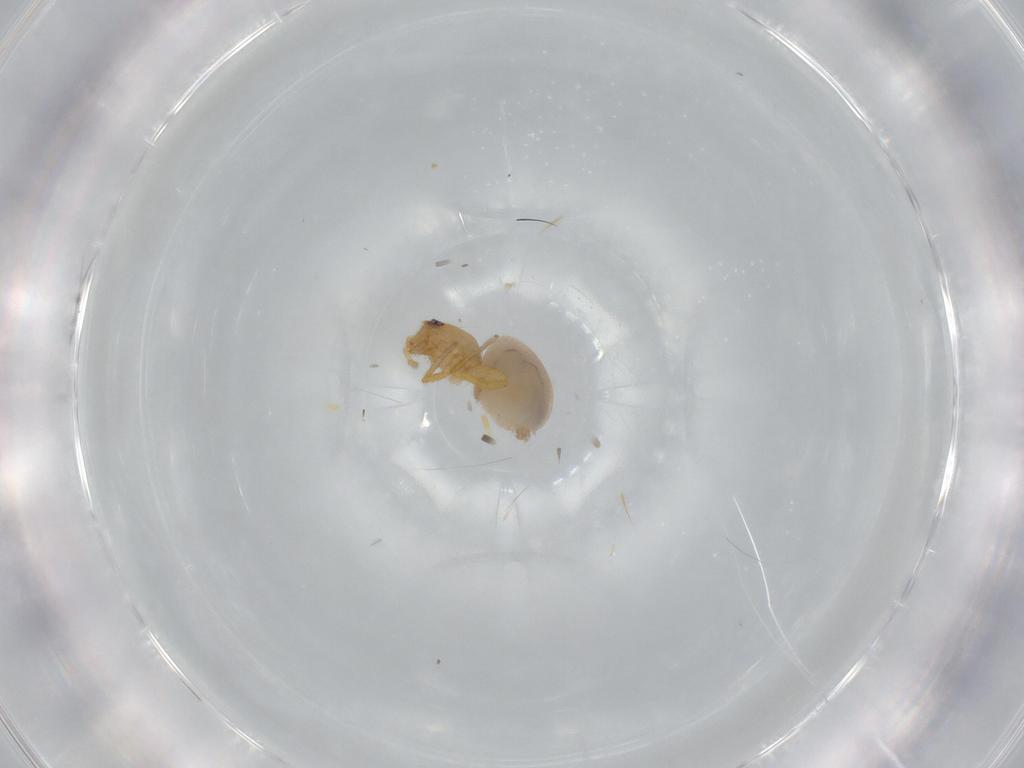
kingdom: Animalia
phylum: Arthropoda
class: Arachnida
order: Araneae
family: Oonopidae
